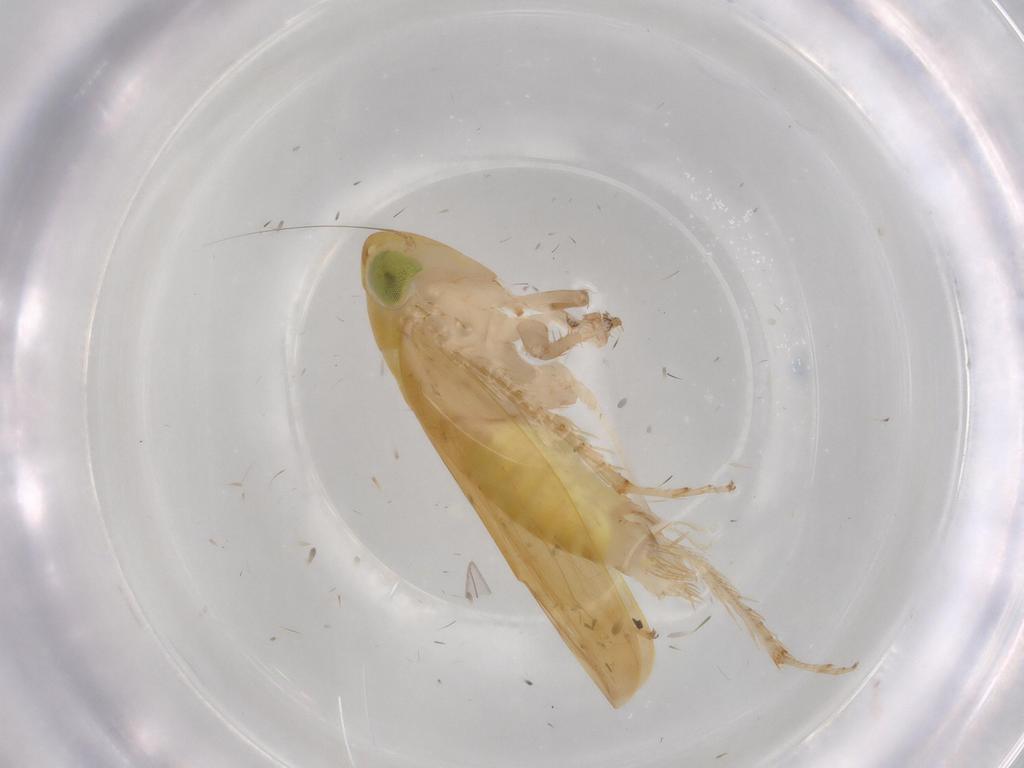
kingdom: Animalia
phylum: Arthropoda
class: Insecta
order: Blattodea
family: Ectobiidae
